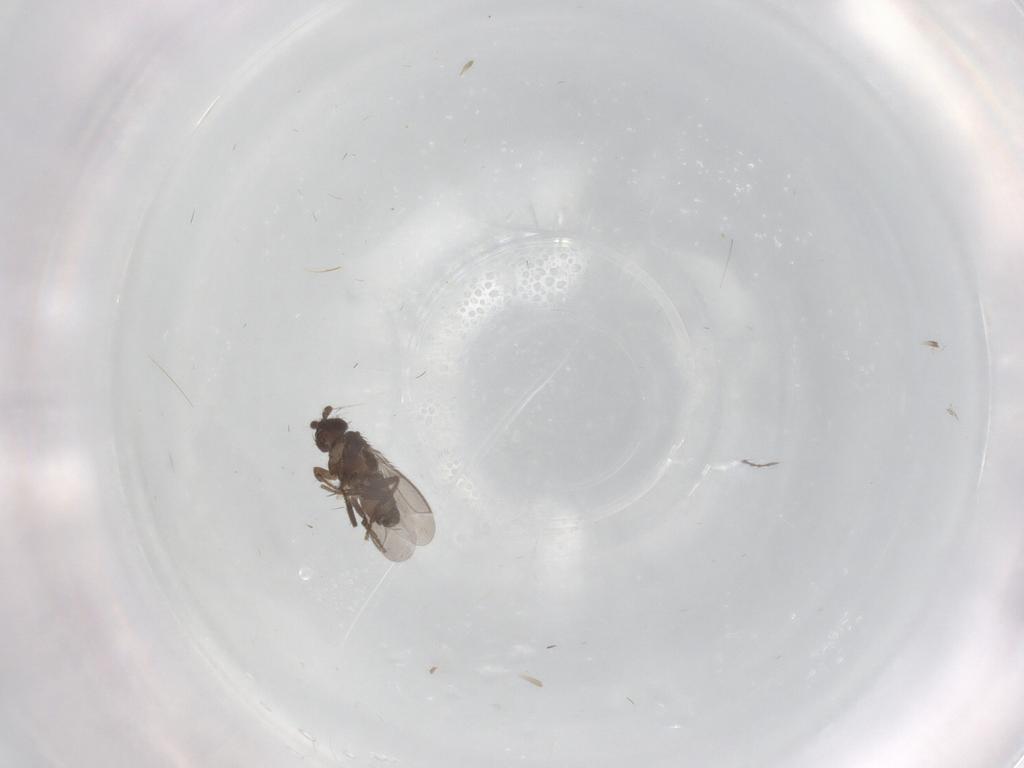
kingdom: Animalia
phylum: Arthropoda
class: Insecta
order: Diptera
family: Sphaeroceridae
